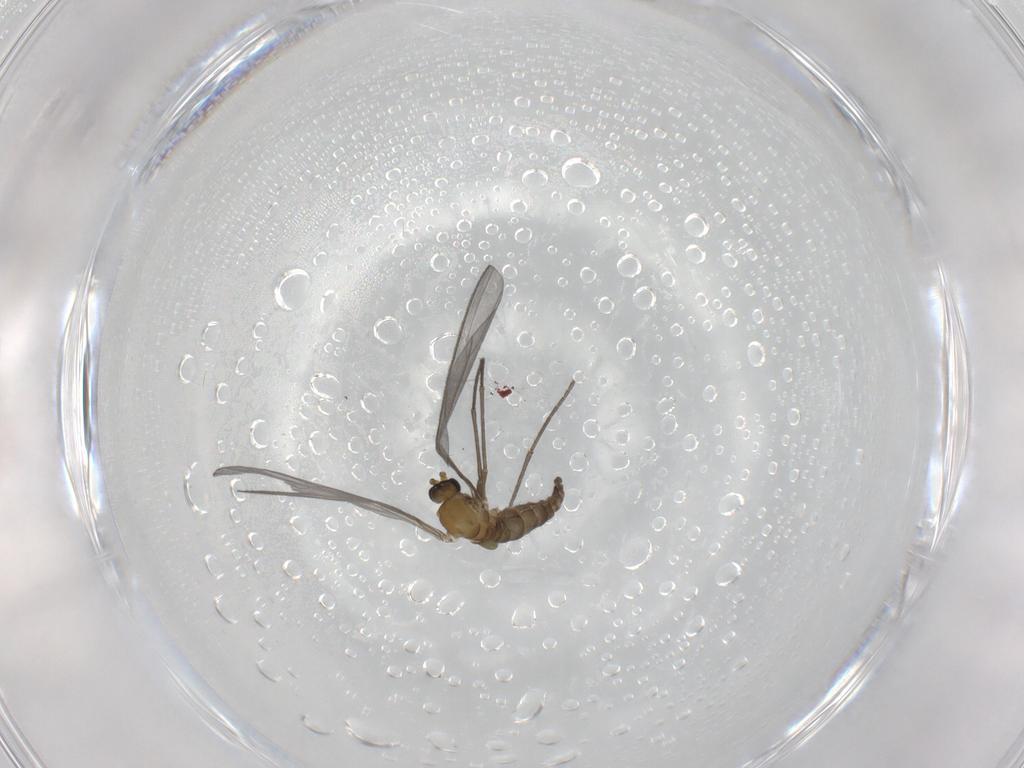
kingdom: Animalia
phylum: Arthropoda
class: Insecta
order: Diptera
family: Sciaridae
